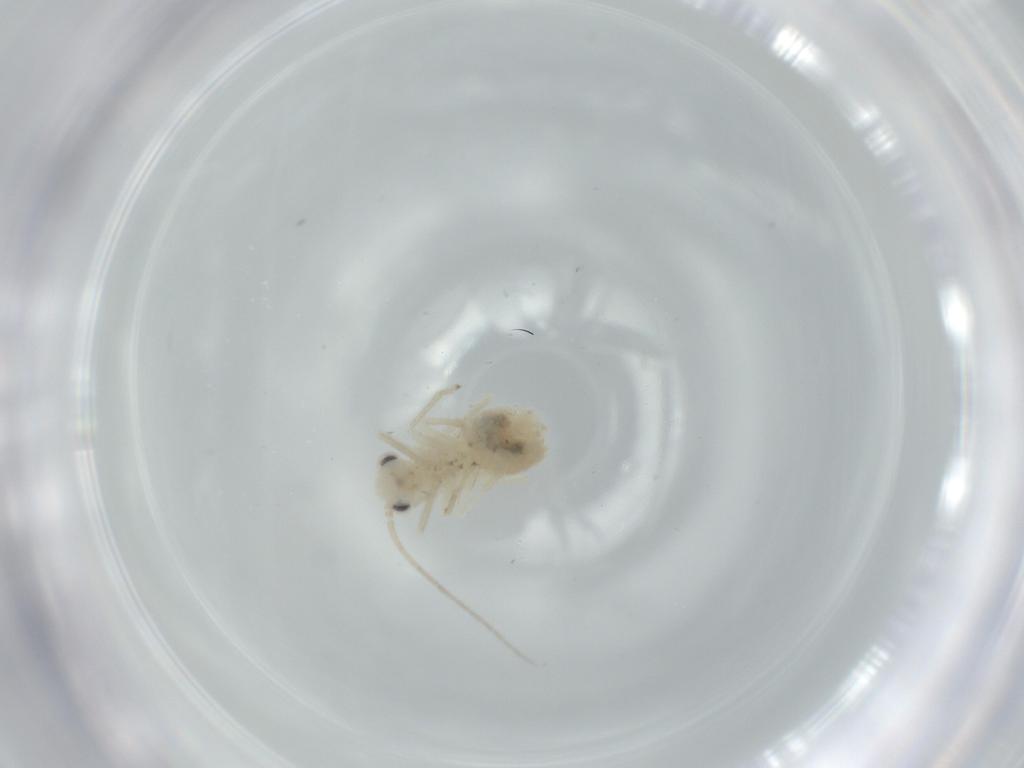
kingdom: Animalia
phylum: Arthropoda
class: Insecta
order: Psocodea
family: Caeciliusidae
